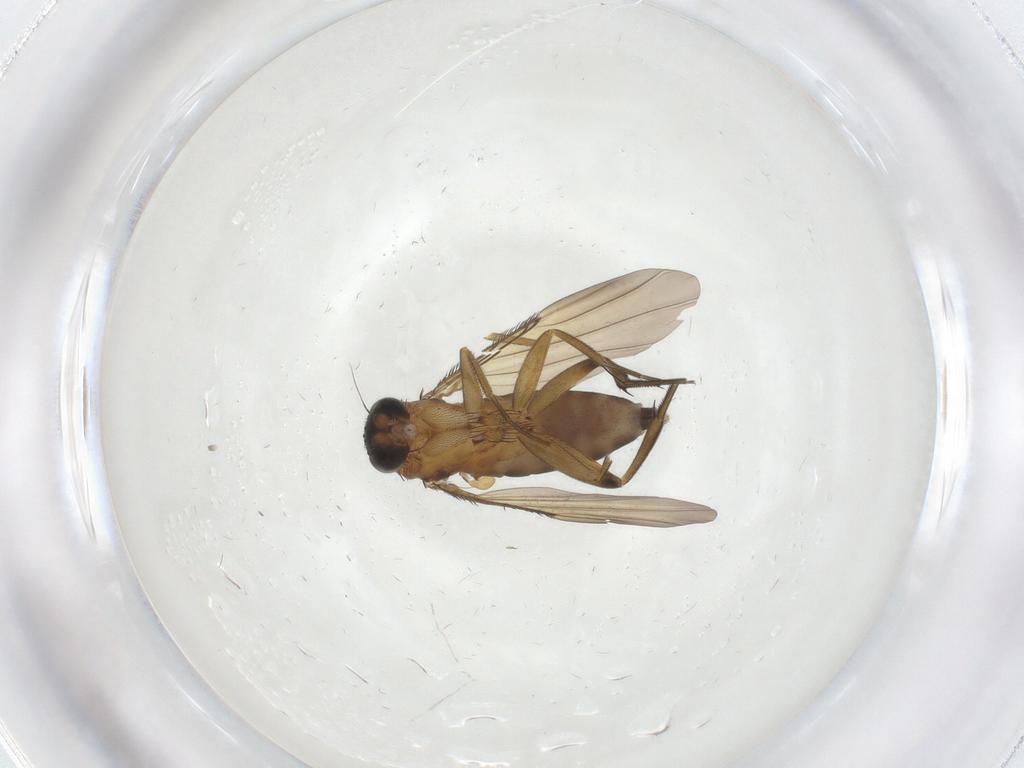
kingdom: Animalia
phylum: Arthropoda
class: Insecta
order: Diptera
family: Phoridae
